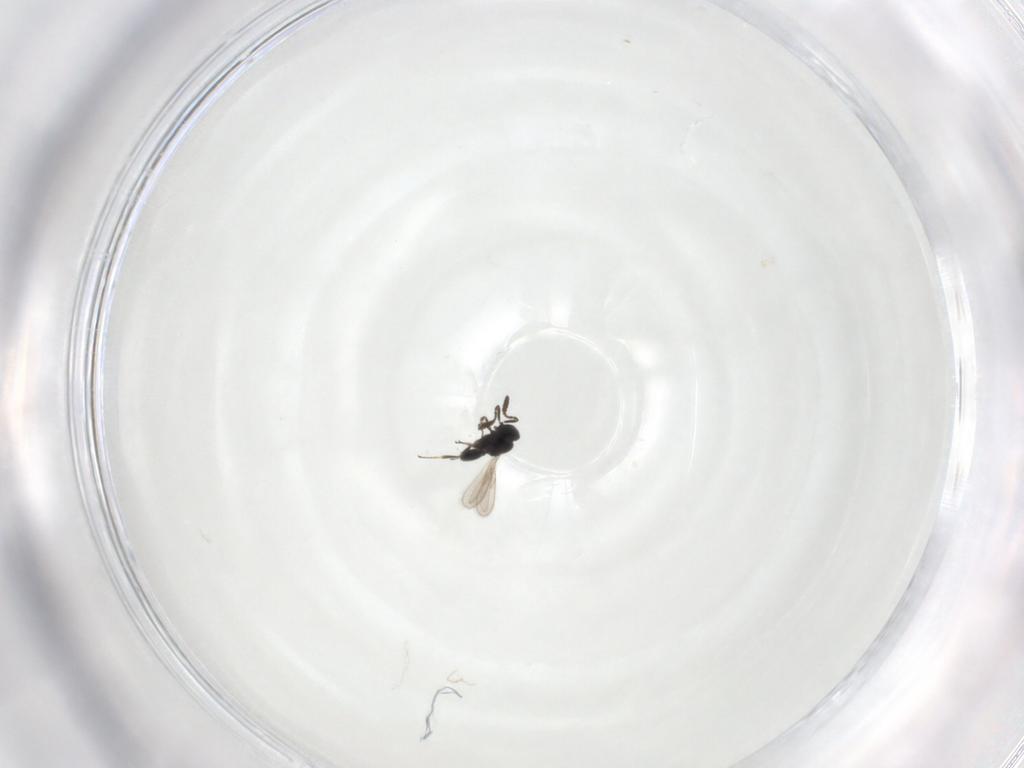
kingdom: Animalia
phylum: Arthropoda
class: Insecta
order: Hymenoptera
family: Scelionidae
